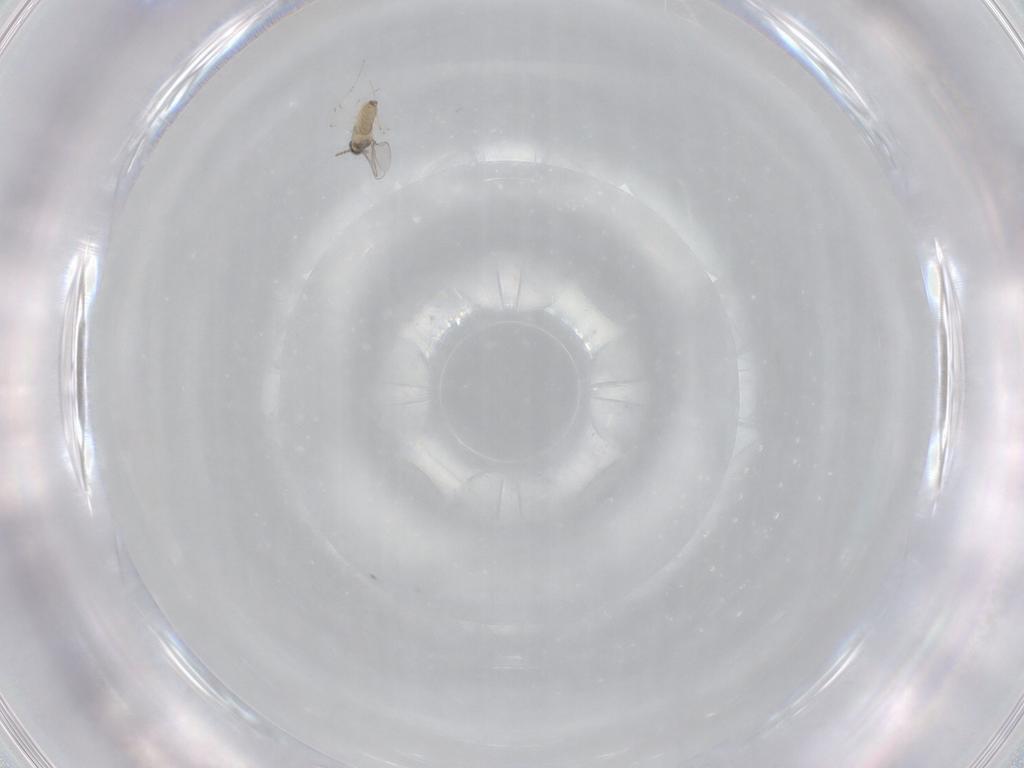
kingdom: Animalia
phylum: Arthropoda
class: Insecta
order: Diptera
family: Cecidomyiidae
